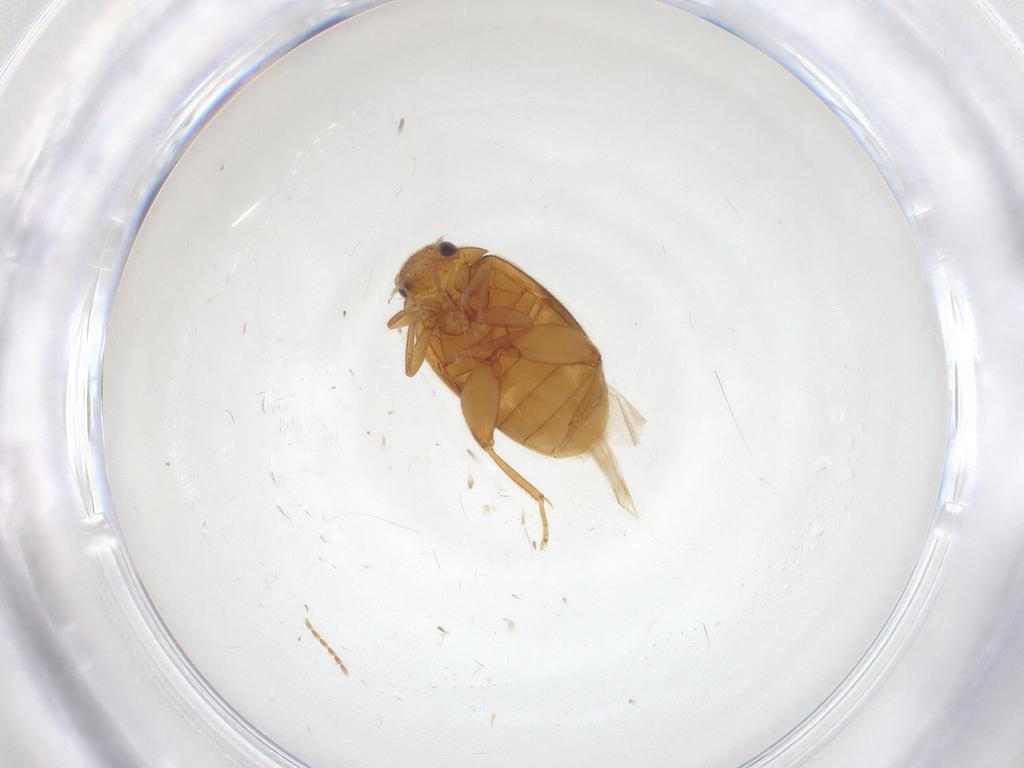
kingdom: Animalia
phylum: Arthropoda
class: Insecta
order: Coleoptera
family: Scirtidae
